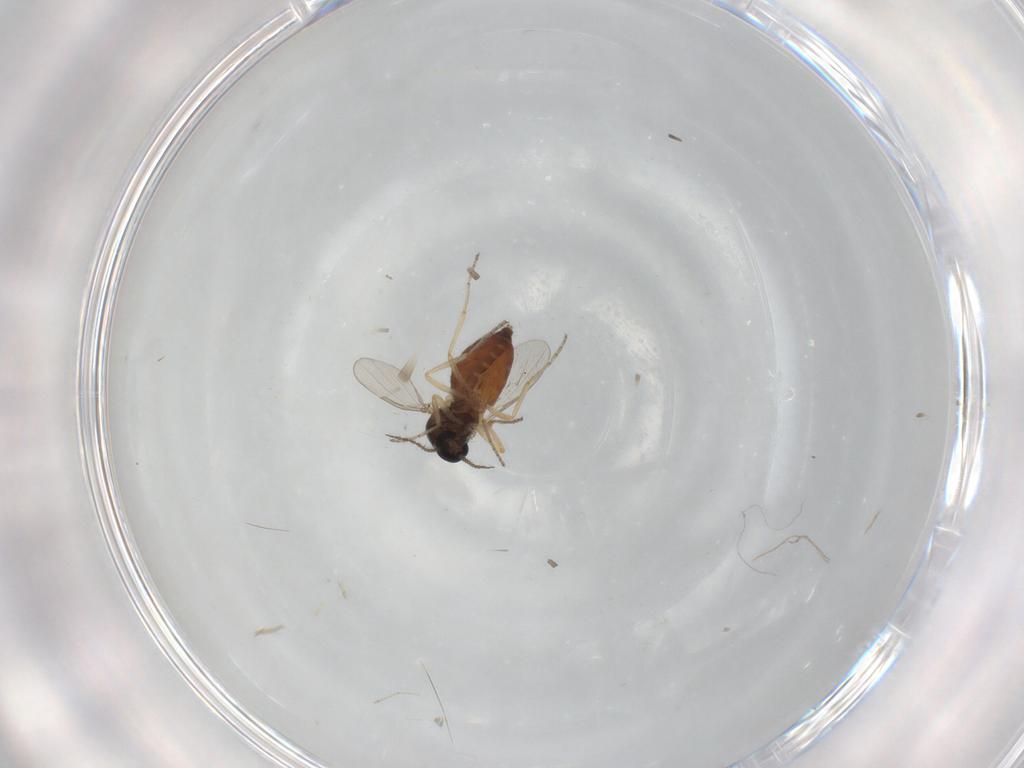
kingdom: Animalia
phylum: Arthropoda
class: Insecta
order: Diptera
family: Ceratopogonidae
